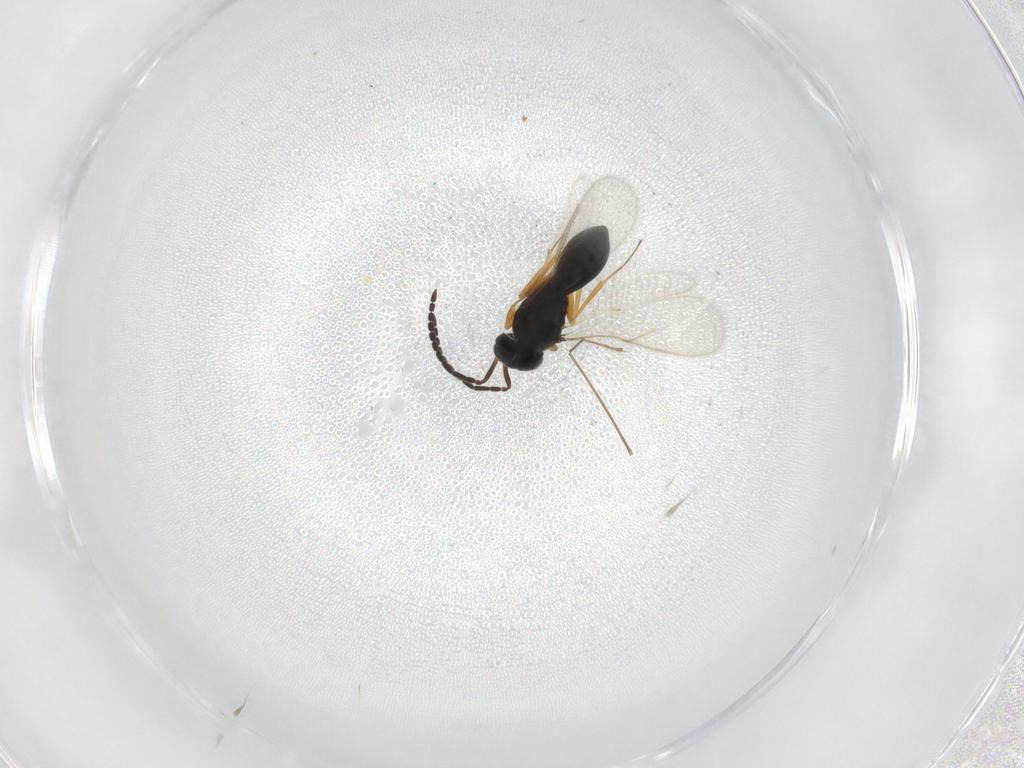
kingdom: Animalia
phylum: Arthropoda
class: Insecta
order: Hymenoptera
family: Scelionidae
